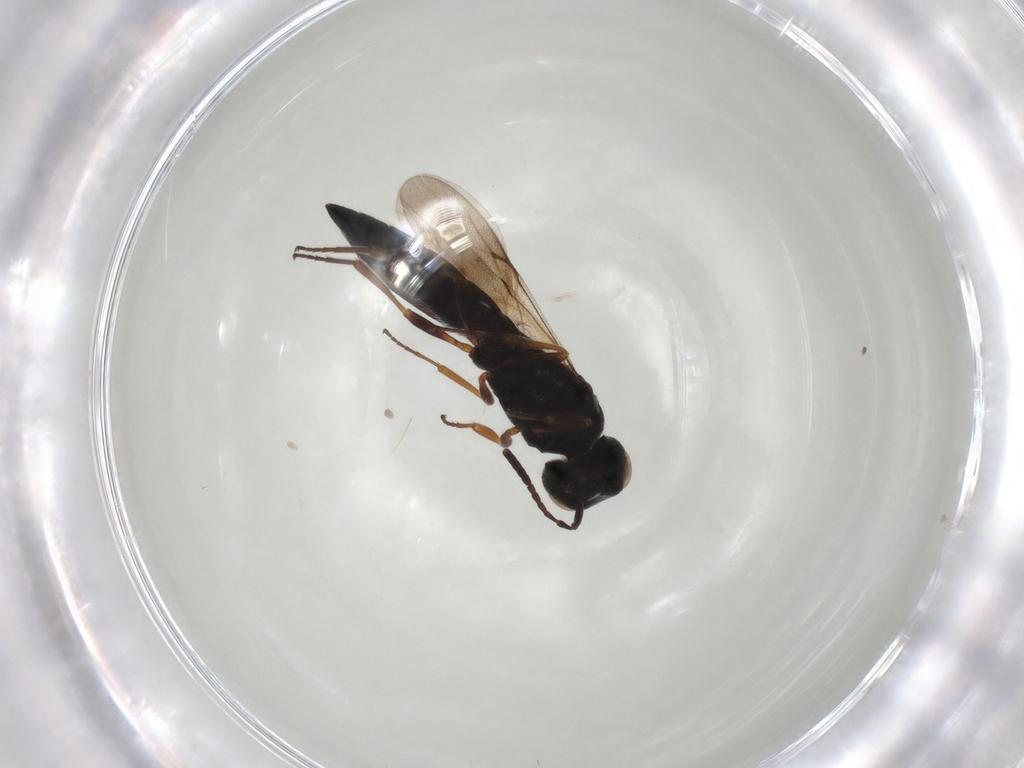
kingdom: Animalia
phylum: Arthropoda
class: Insecta
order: Hymenoptera
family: Scelionidae
